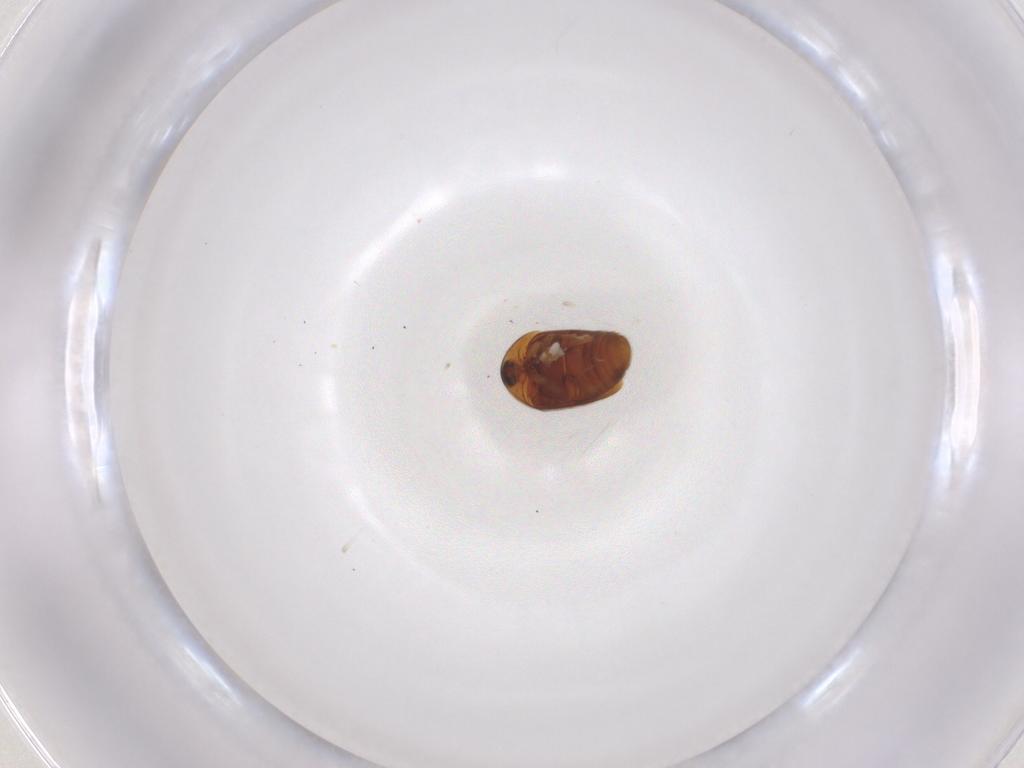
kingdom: Animalia
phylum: Arthropoda
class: Insecta
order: Coleoptera
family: Corylophidae
